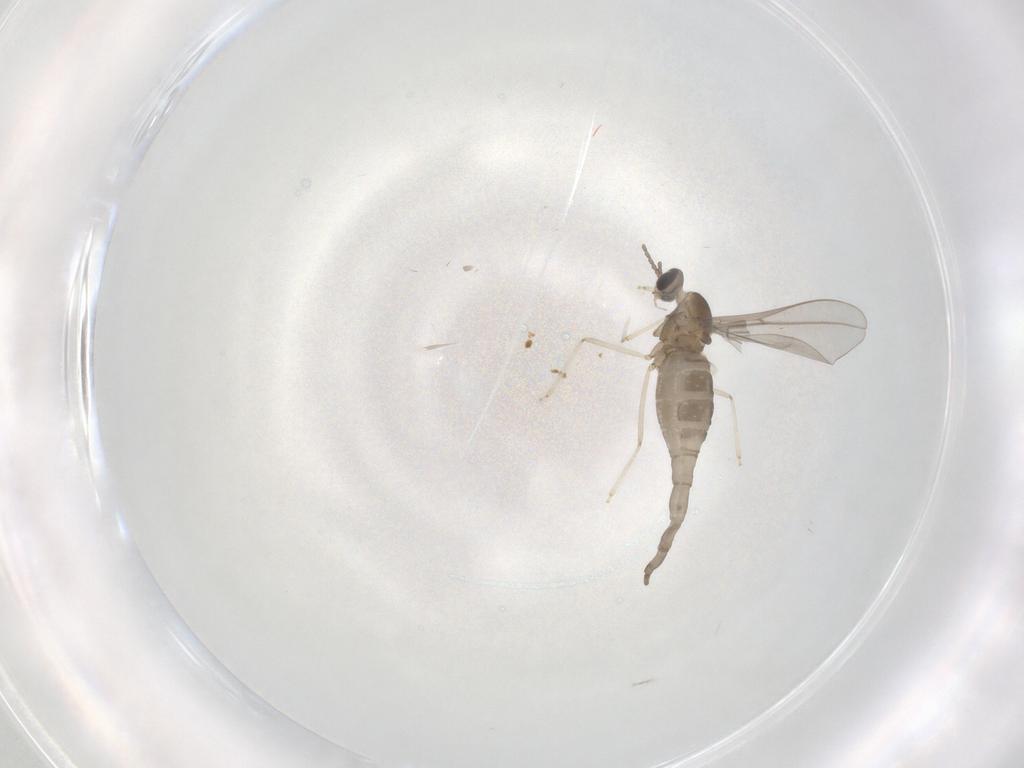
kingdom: Animalia
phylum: Arthropoda
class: Insecta
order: Diptera
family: Cecidomyiidae
